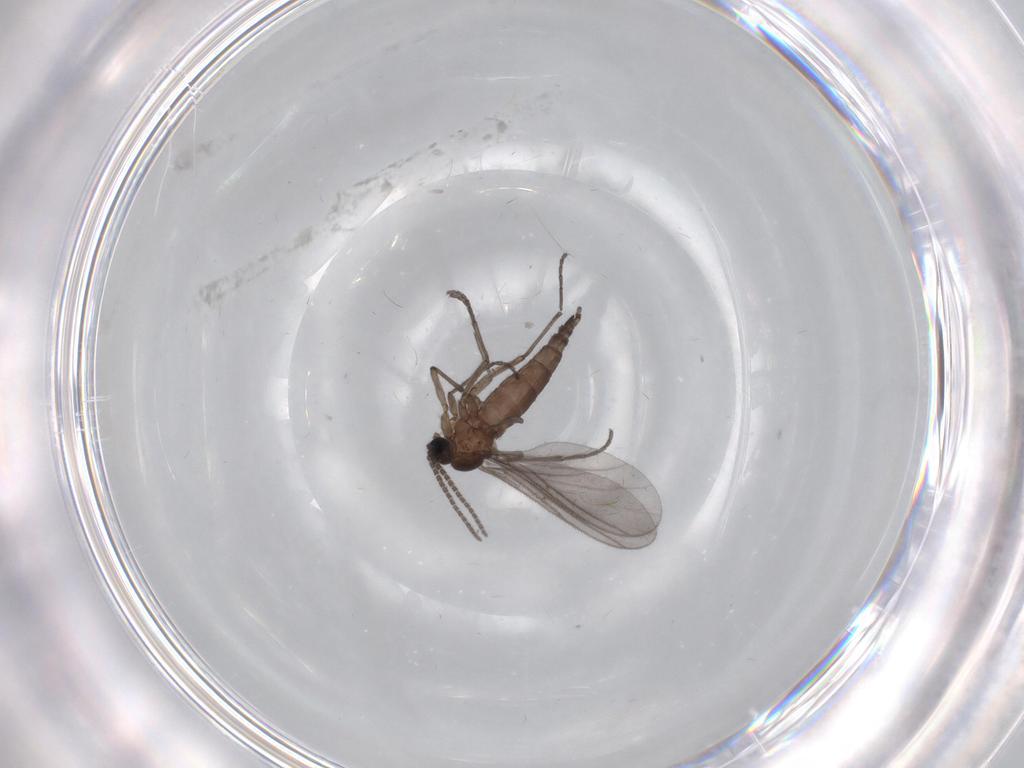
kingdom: Animalia
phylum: Arthropoda
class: Insecta
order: Diptera
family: Sciaridae
